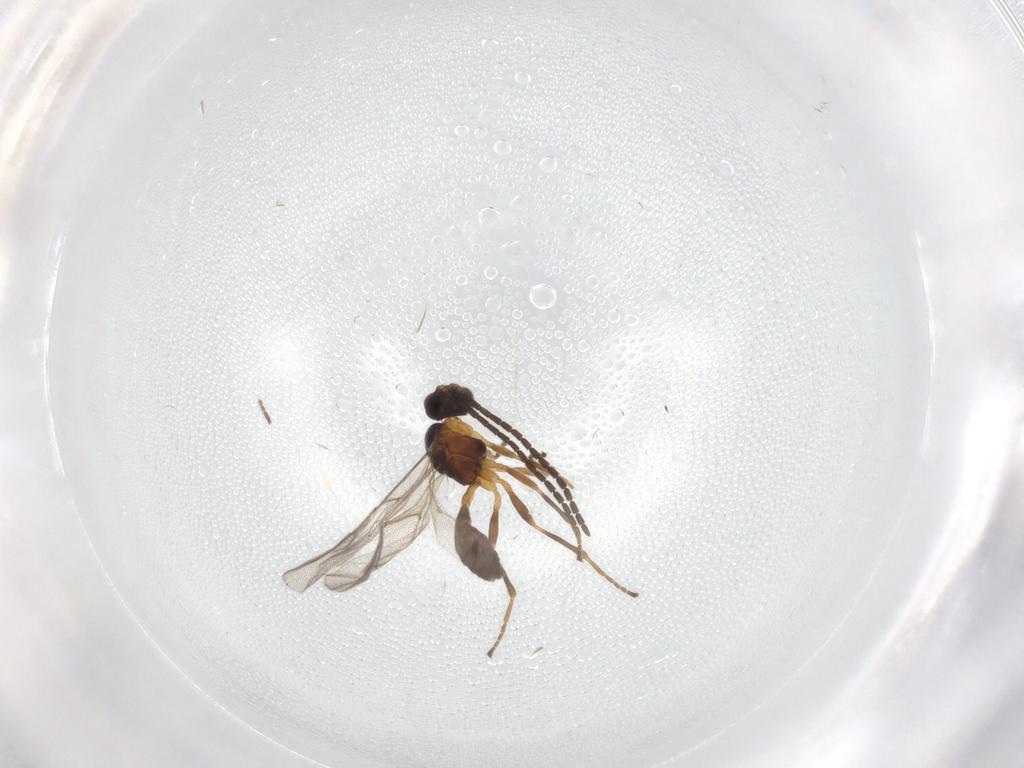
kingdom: Animalia
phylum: Arthropoda
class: Insecta
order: Hymenoptera
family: Braconidae
